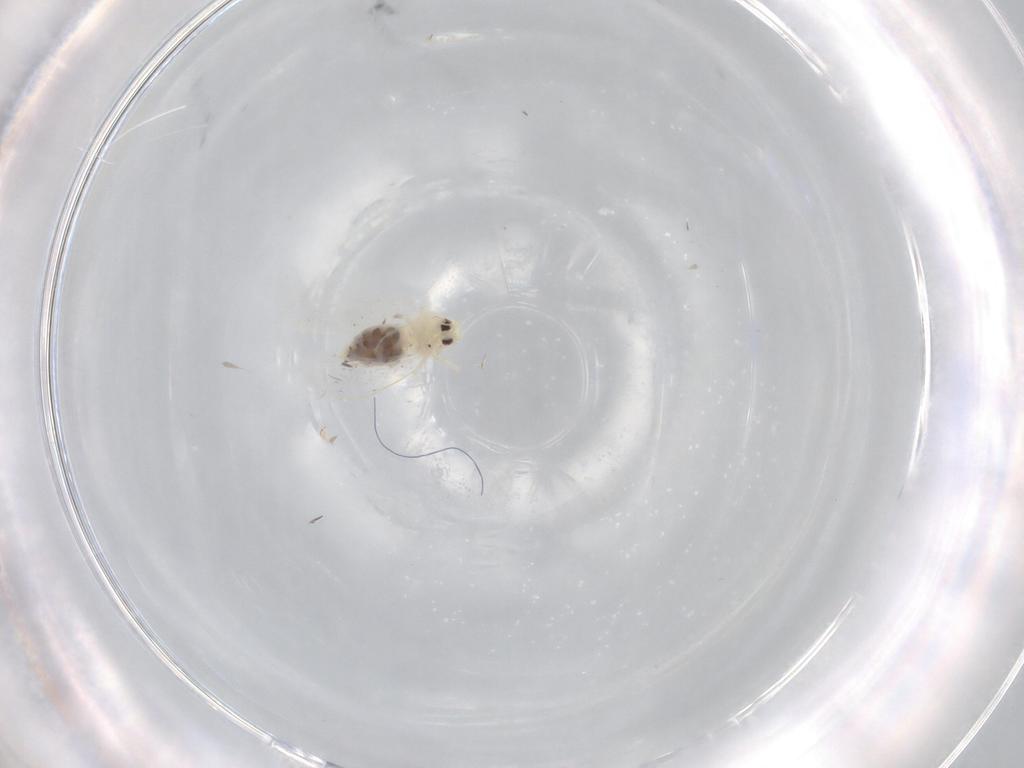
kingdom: Animalia
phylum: Arthropoda
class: Insecta
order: Hemiptera
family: Aleyrodidae
